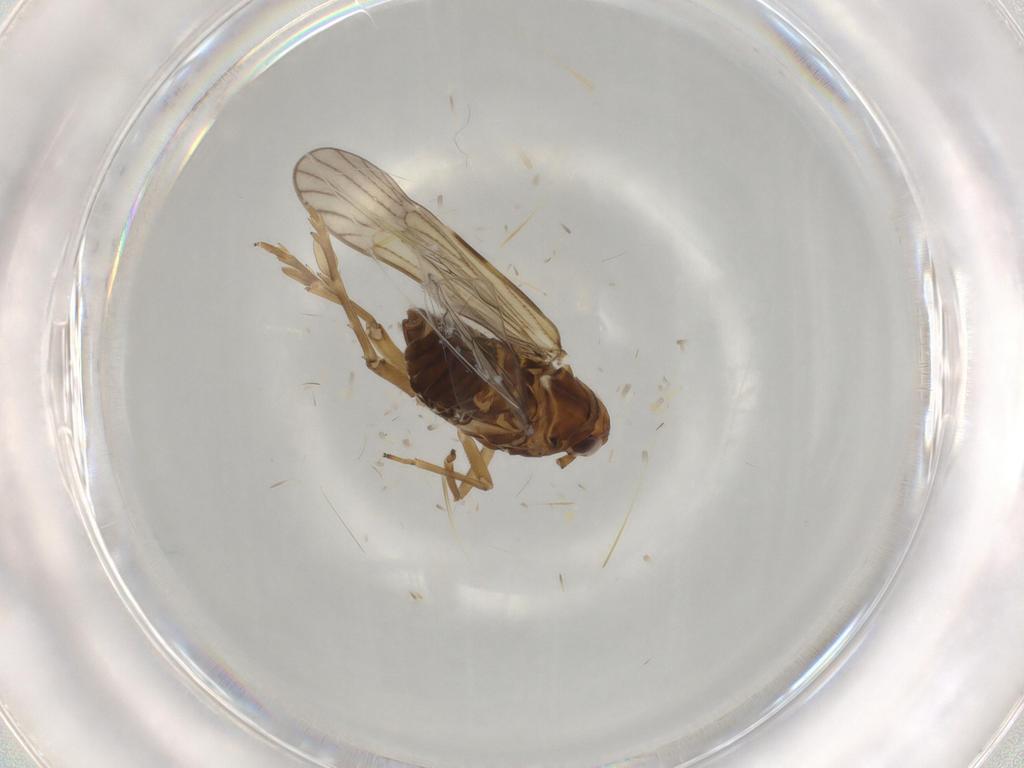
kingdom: Animalia
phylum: Arthropoda
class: Insecta
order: Hemiptera
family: Delphacidae
